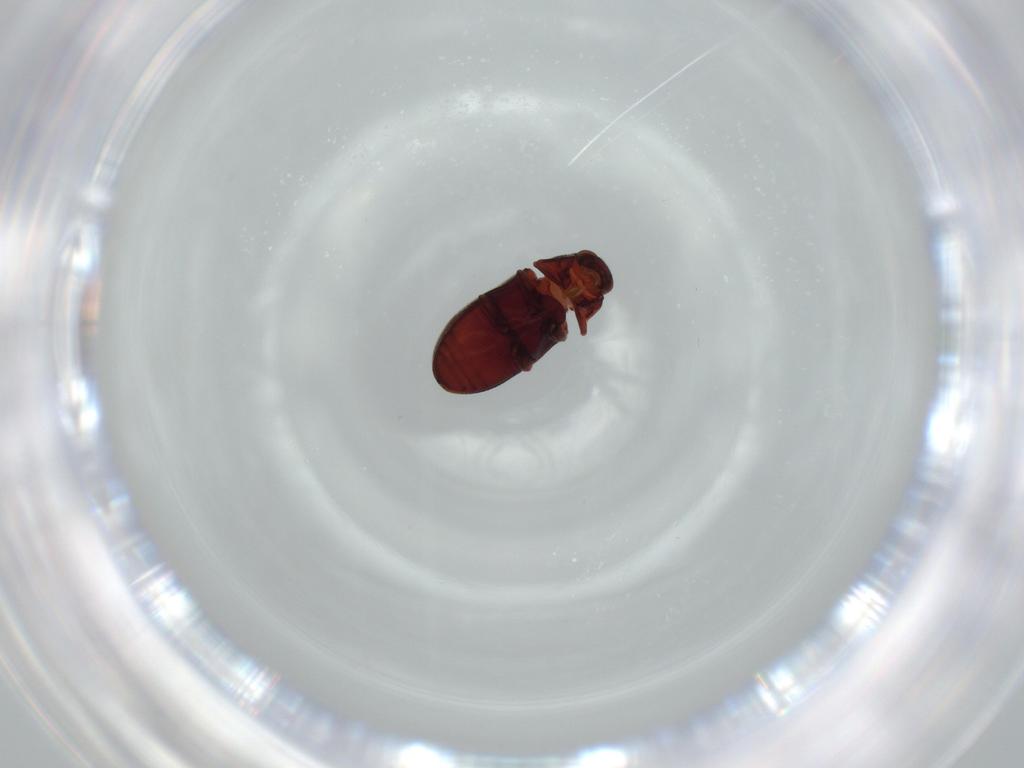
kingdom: Animalia
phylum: Arthropoda
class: Insecta
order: Coleoptera
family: Chrysomelidae
